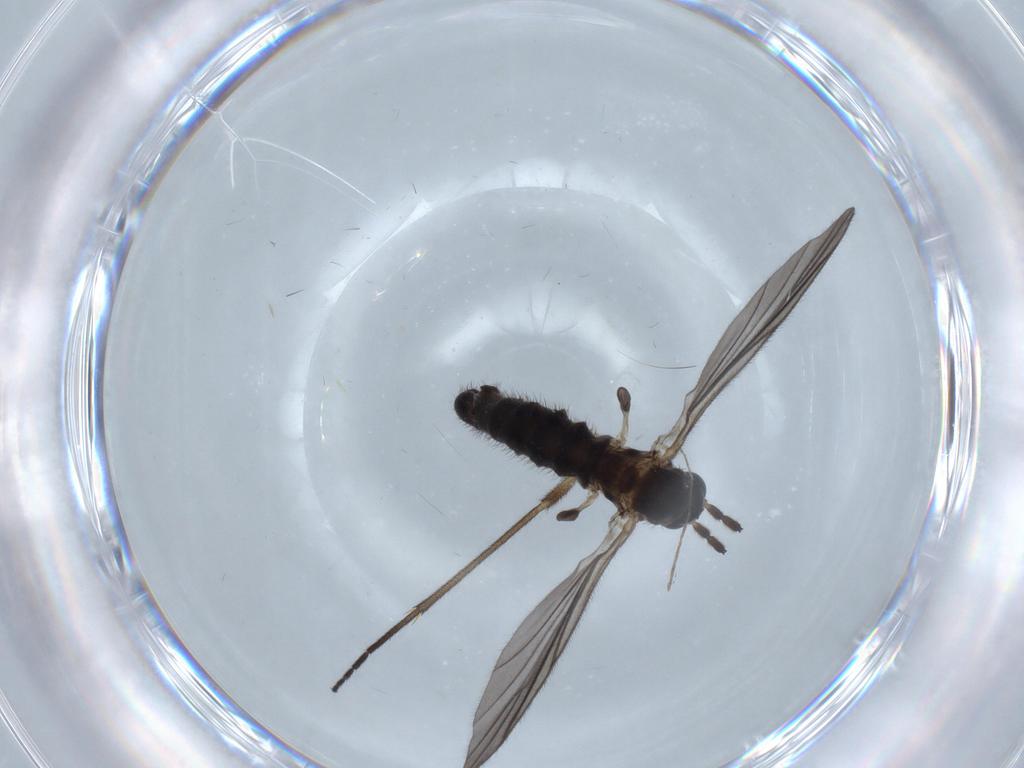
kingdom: Animalia
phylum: Arthropoda
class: Insecta
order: Diptera
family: Sciaridae
